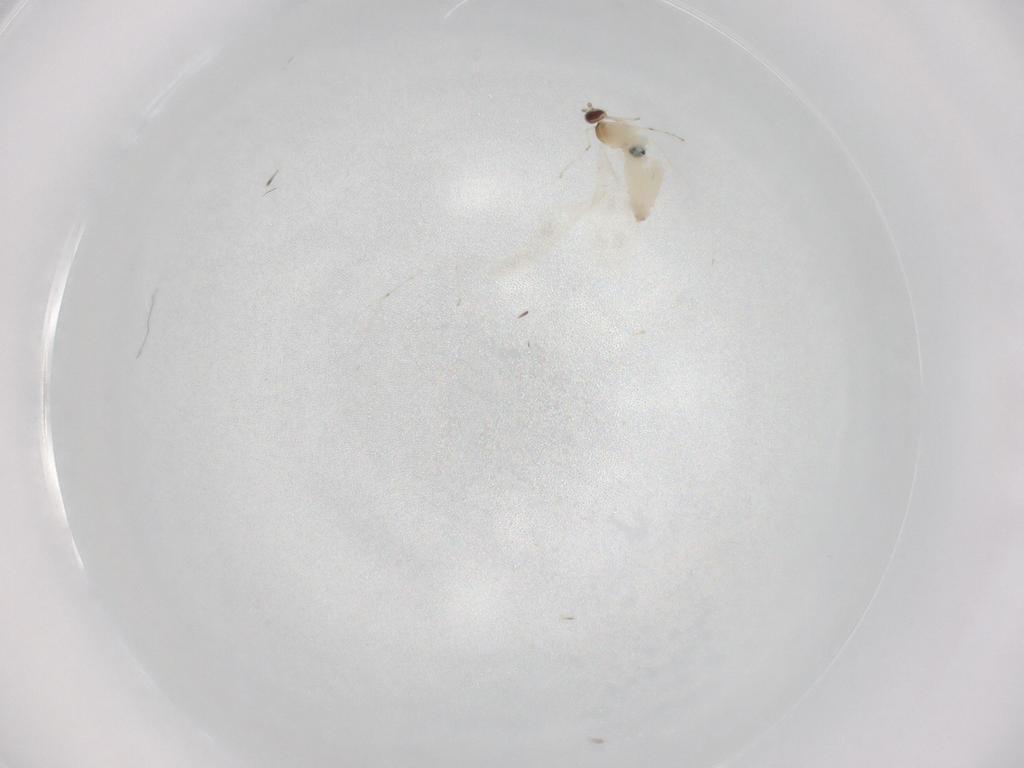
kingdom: Animalia
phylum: Arthropoda
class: Insecta
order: Diptera
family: Cecidomyiidae
